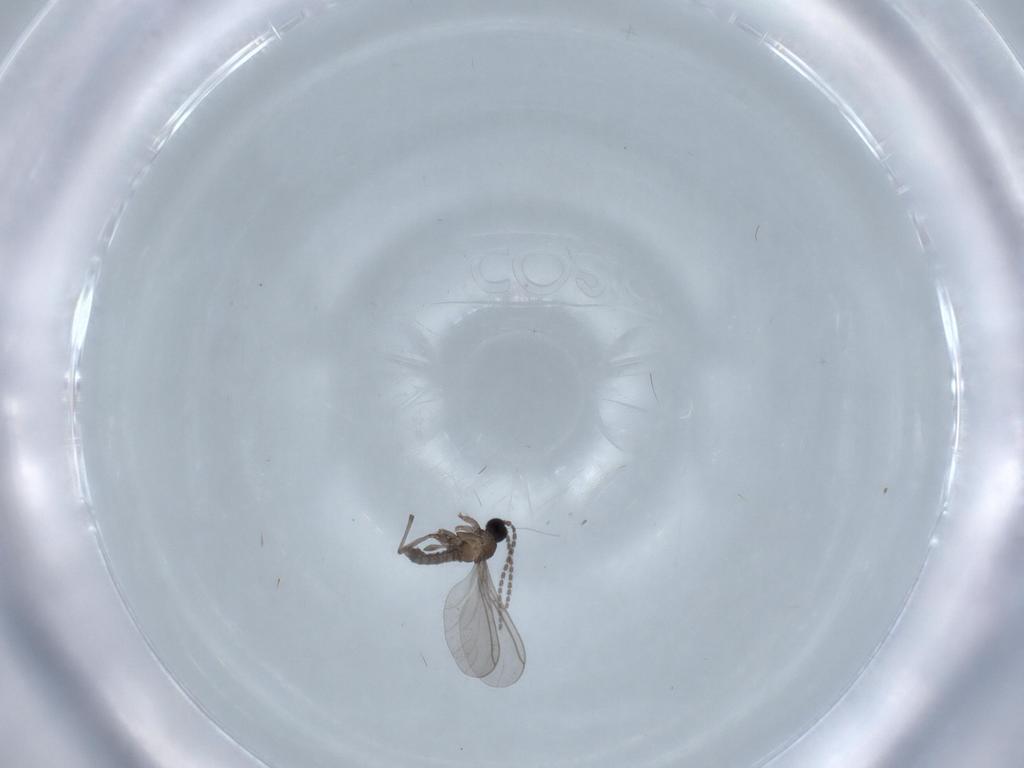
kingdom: Animalia
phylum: Arthropoda
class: Insecta
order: Diptera
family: Sciaridae
